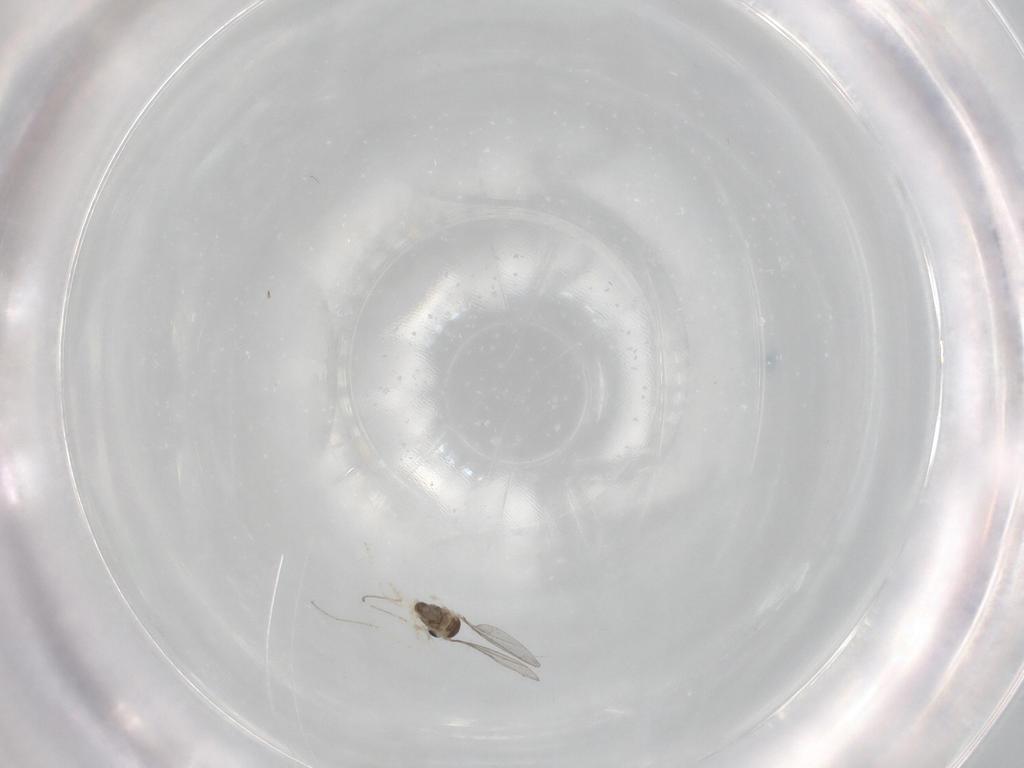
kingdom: Animalia
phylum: Arthropoda
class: Insecta
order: Diptera
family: Cecidomyiidae
